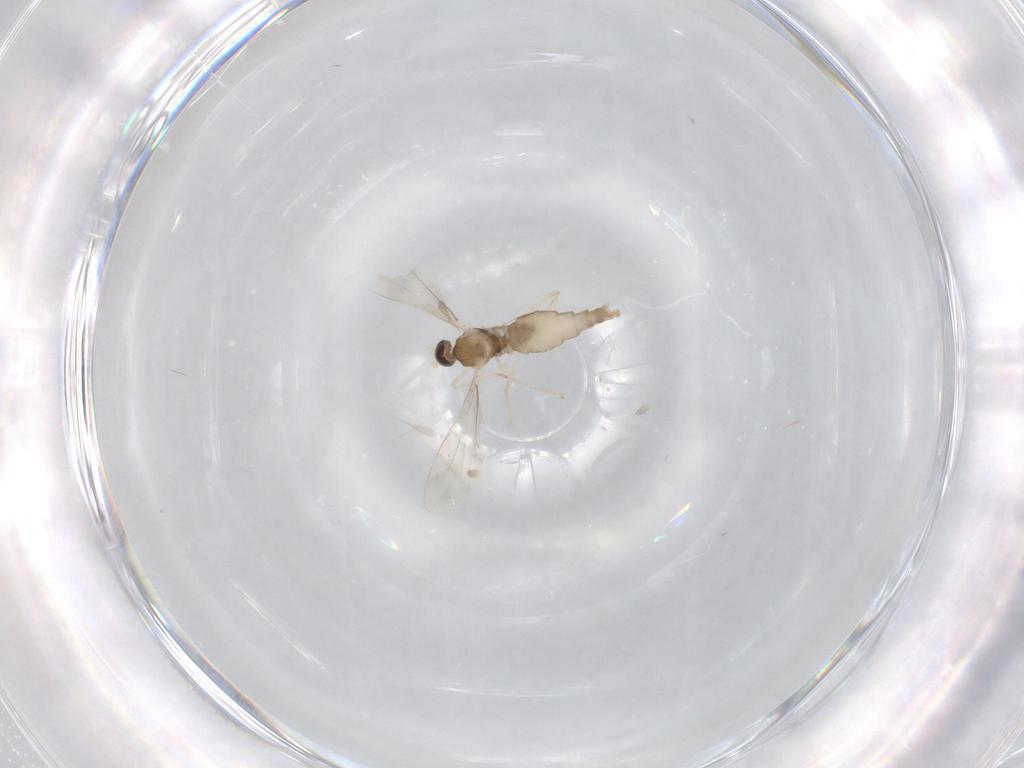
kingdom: Animalia
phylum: Arthropoda
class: Insecta
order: Diptera
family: Cecidomyiidae
